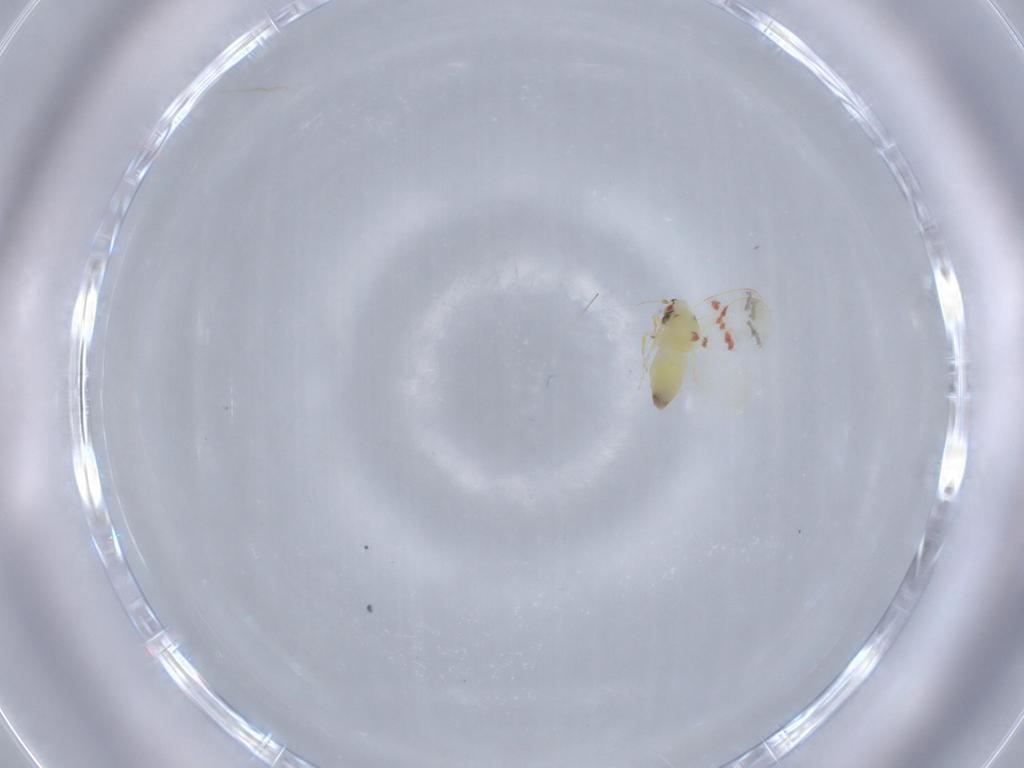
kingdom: Animalia
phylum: Arthropoda
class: Insecta
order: Hemiptera
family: Aleyrodidae
